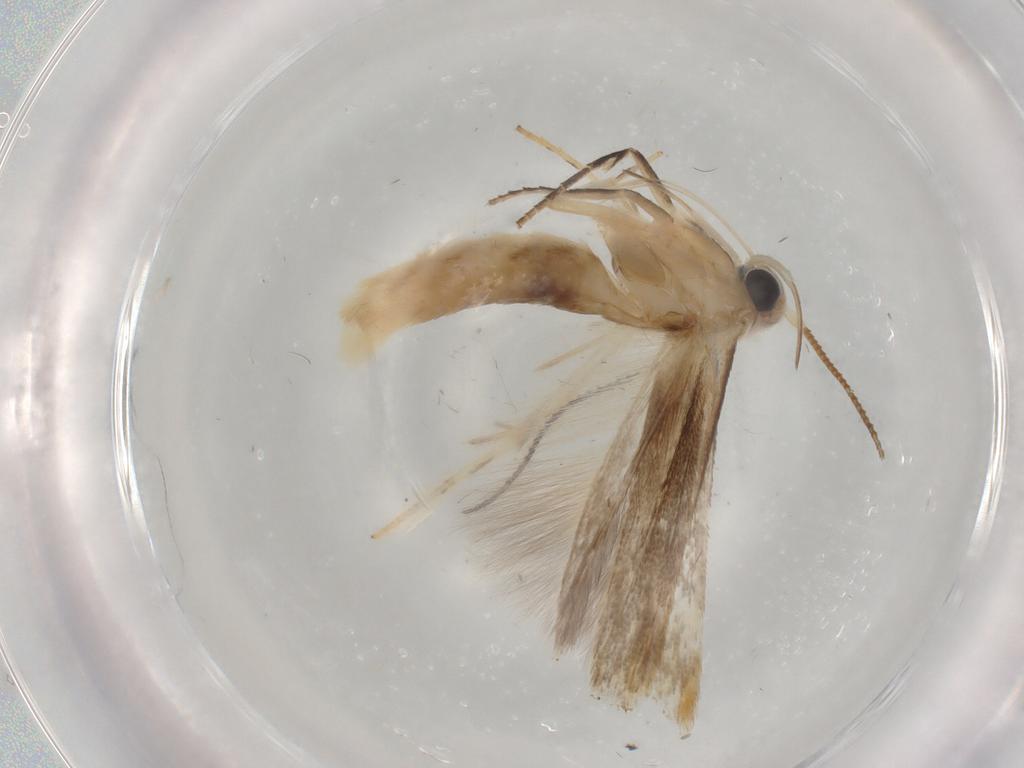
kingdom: Animalia
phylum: Arthropoda
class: Insecta
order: Lepidoptera
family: Gelechiidae
